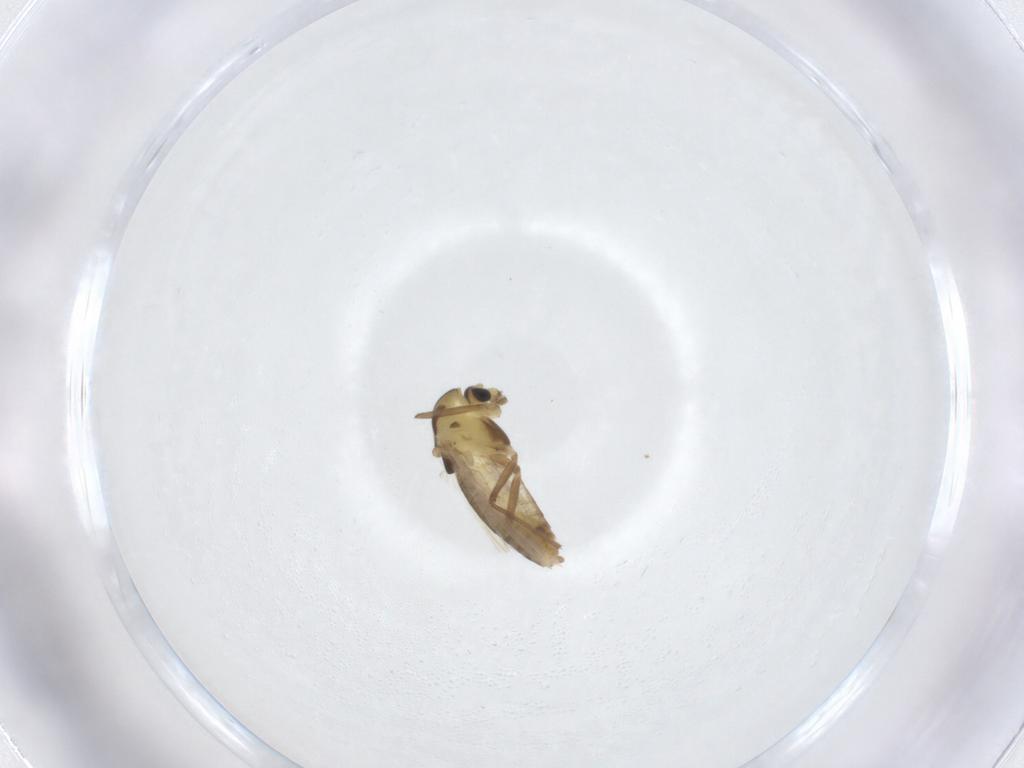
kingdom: Animalia
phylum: Arthropoda
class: Insecta
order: Diptera
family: Chironomidae
